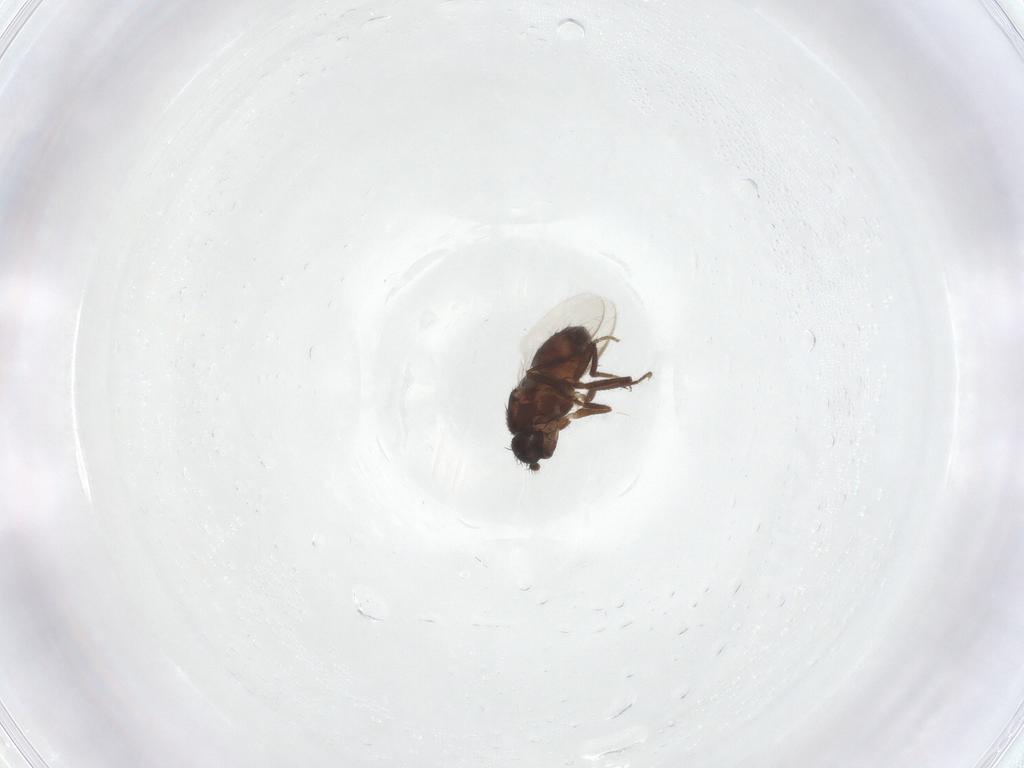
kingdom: Animalia
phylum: Arthropoda
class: Insecta
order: Diptera
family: Sphaeroceridae
